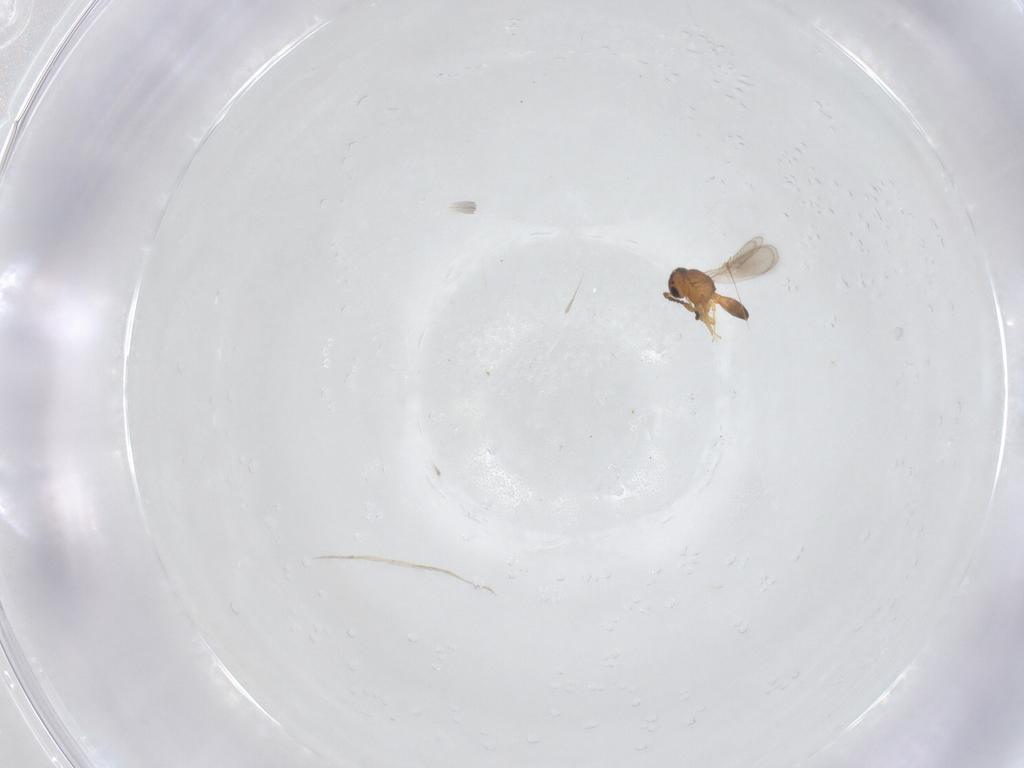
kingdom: Animalia
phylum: Arthropoda
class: Insecta
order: Hymenoptera
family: Scelionidae
